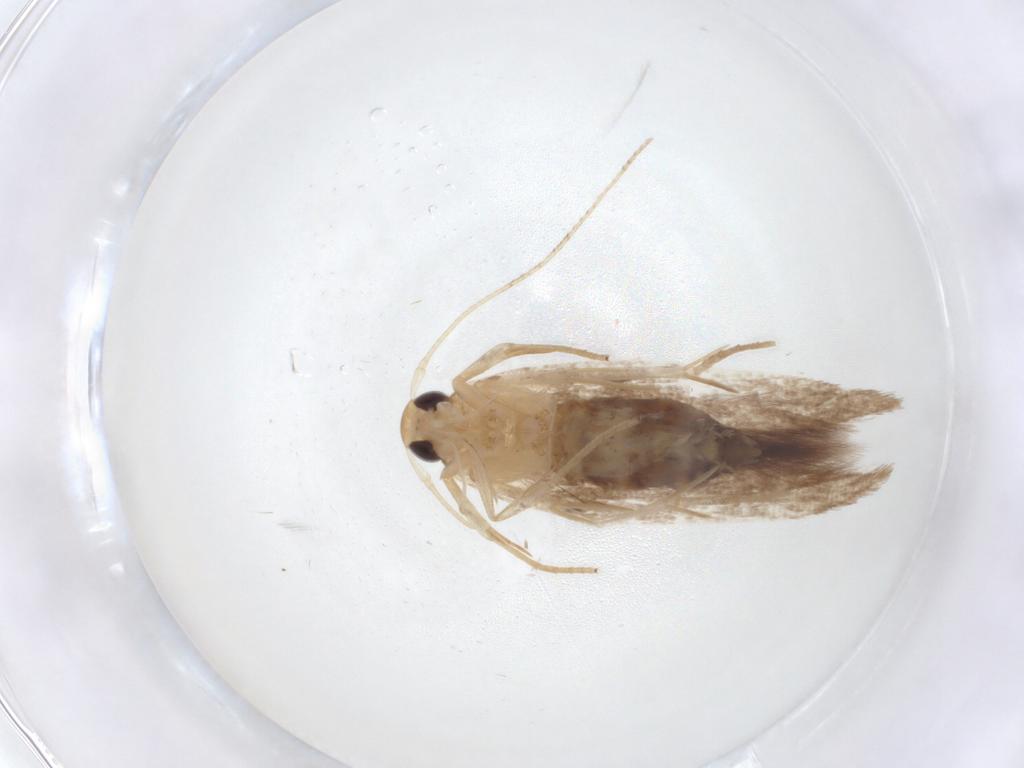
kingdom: Animalia
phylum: Arthropoda
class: Insecta
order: Lepidoptera
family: Cosmopterigidae
